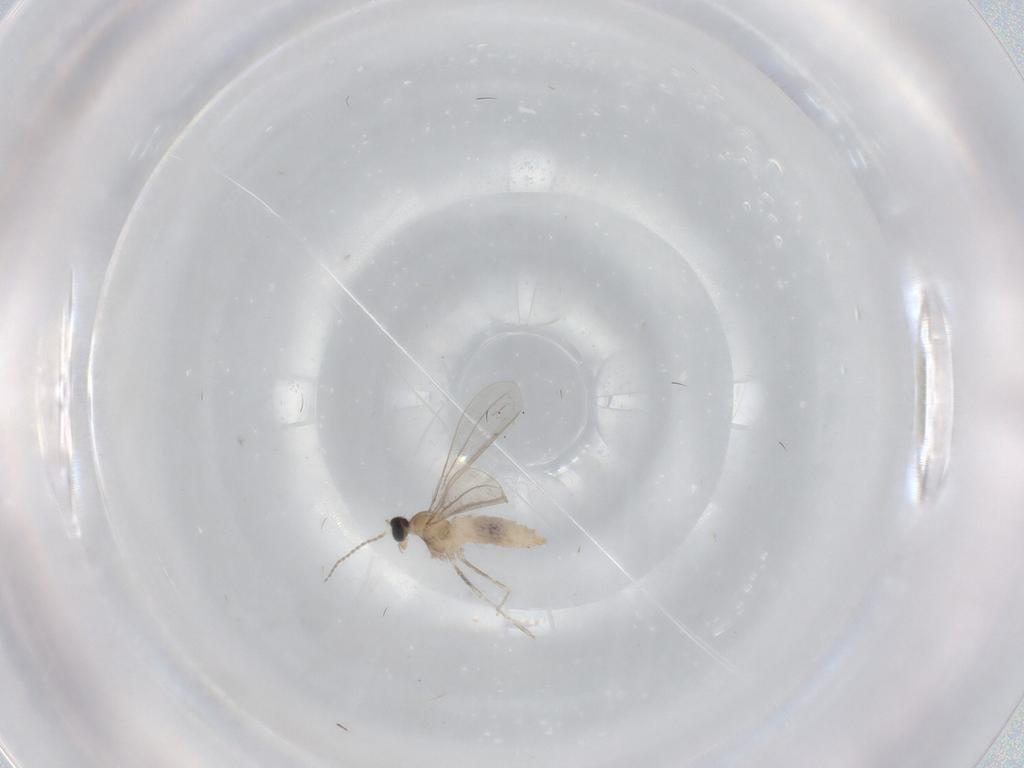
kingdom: Animalia
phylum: Arthropoda
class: Insecta
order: Diptera
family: Cecidomyiidae
